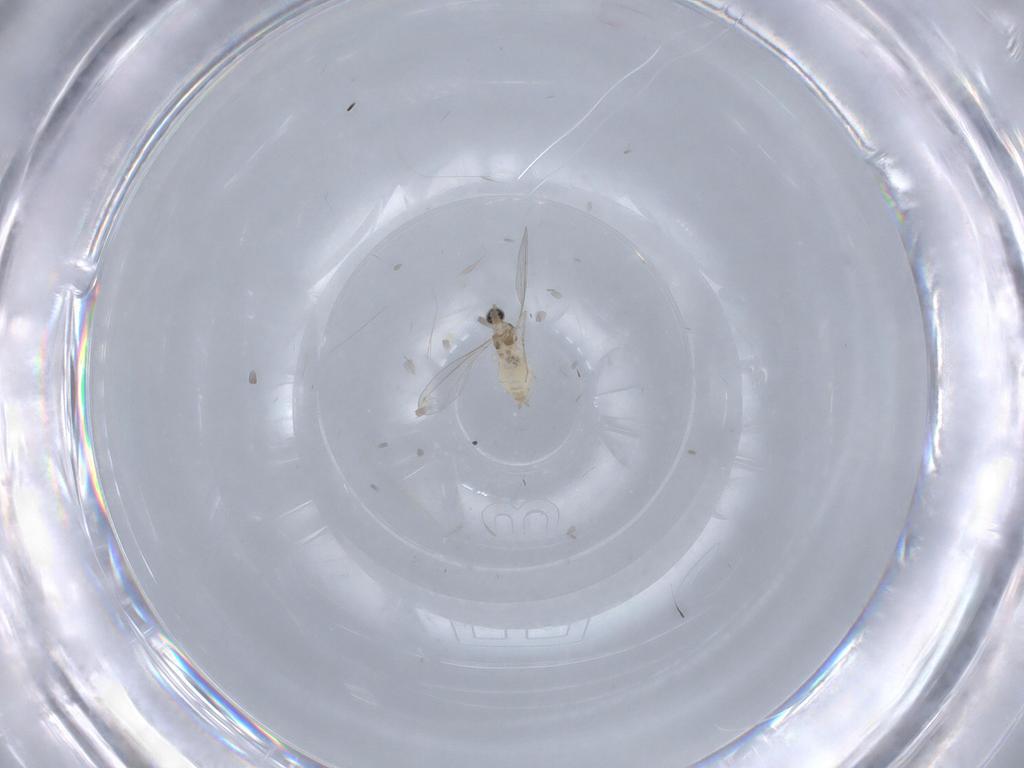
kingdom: Animalia
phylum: Arthropoda
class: Insecta
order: Diptera
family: Cecidomyiidae
